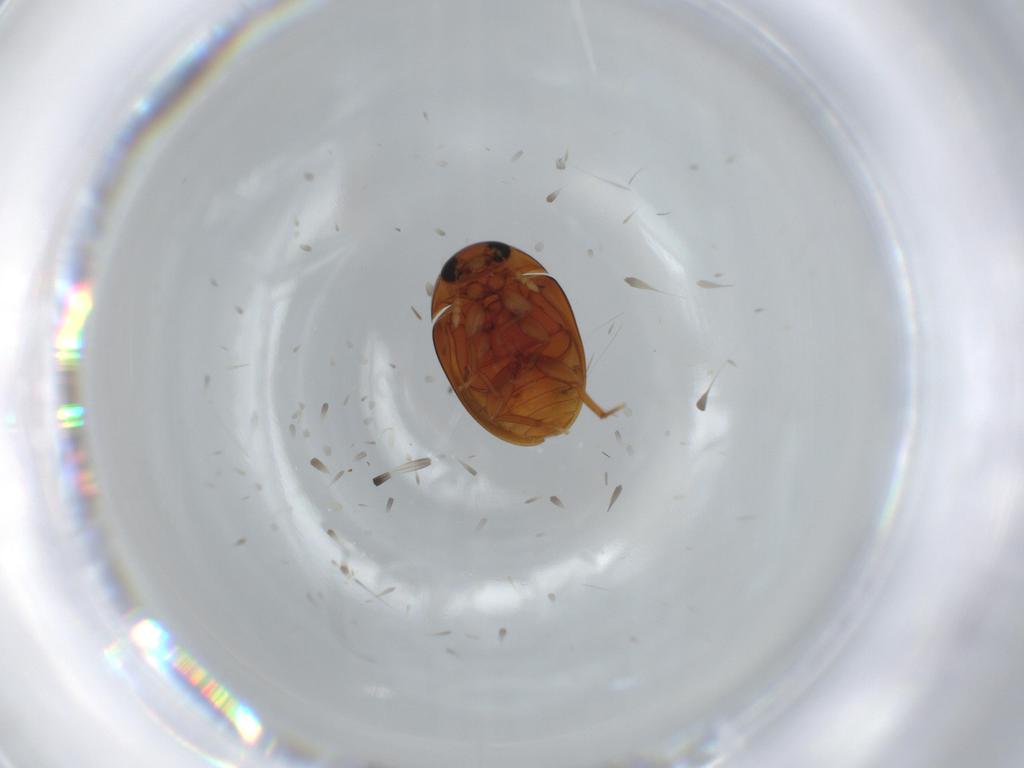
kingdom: Animalia
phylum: Arthropoda
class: Insecta
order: Coleoptera
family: Phalacridae
